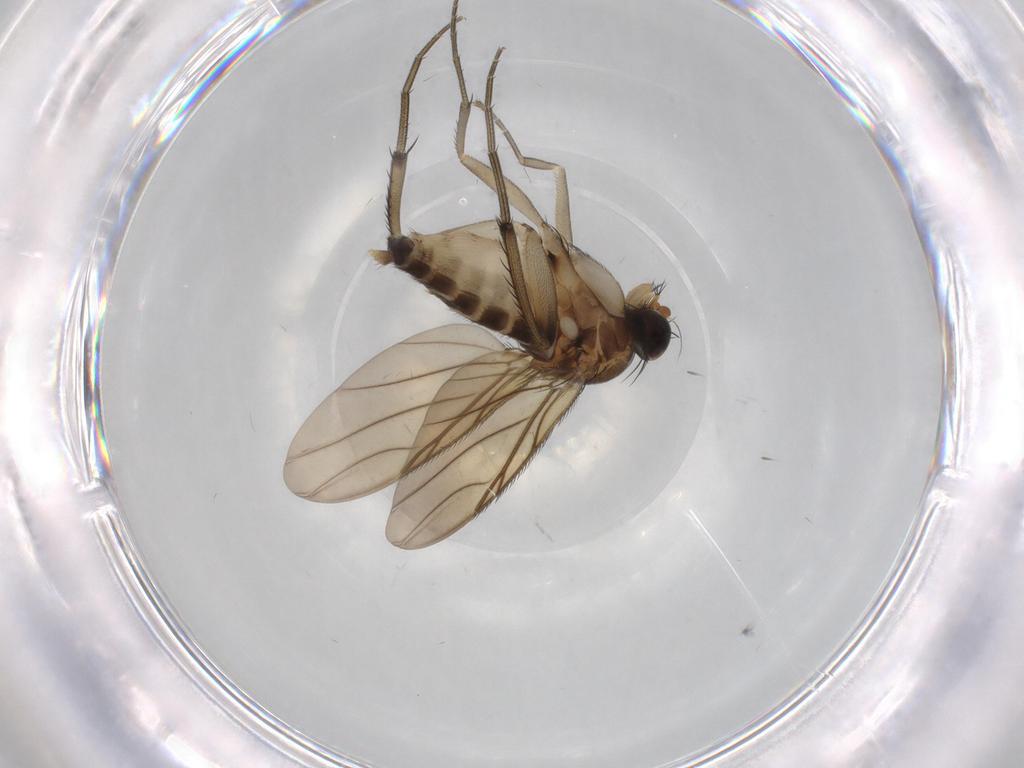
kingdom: Animalia
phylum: Arthropoda
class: Insecta
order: Diptera
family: Phoridae
